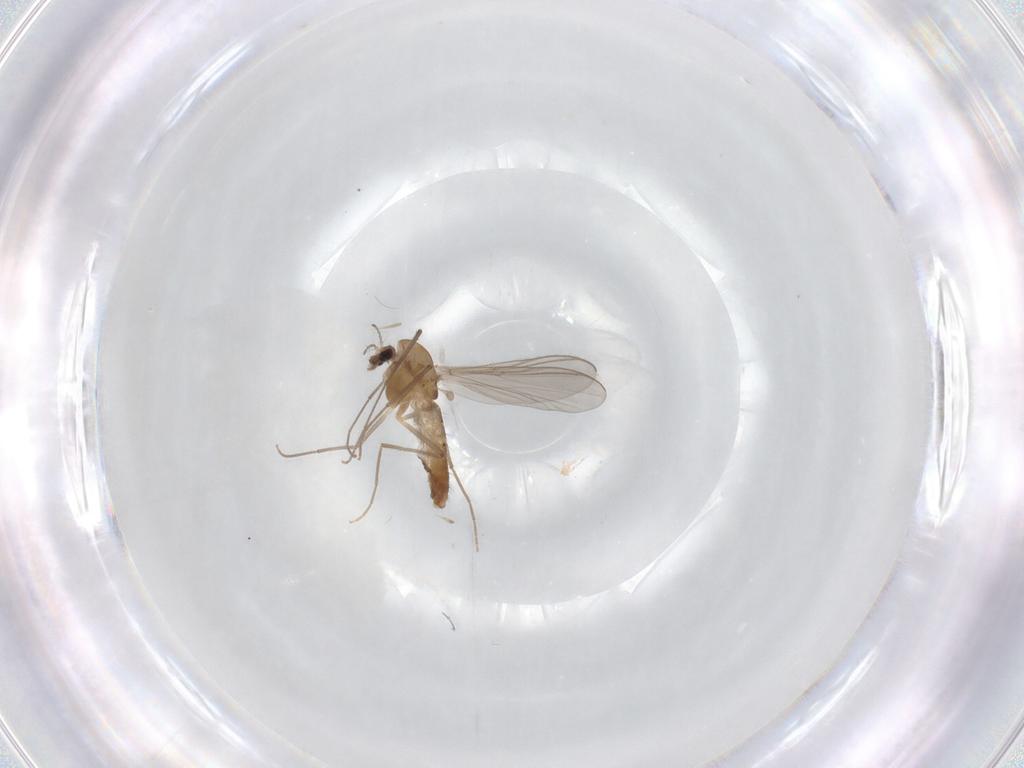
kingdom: Animalia
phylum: Arthropoda
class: Insecta
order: Diptera
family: Chironomidae
